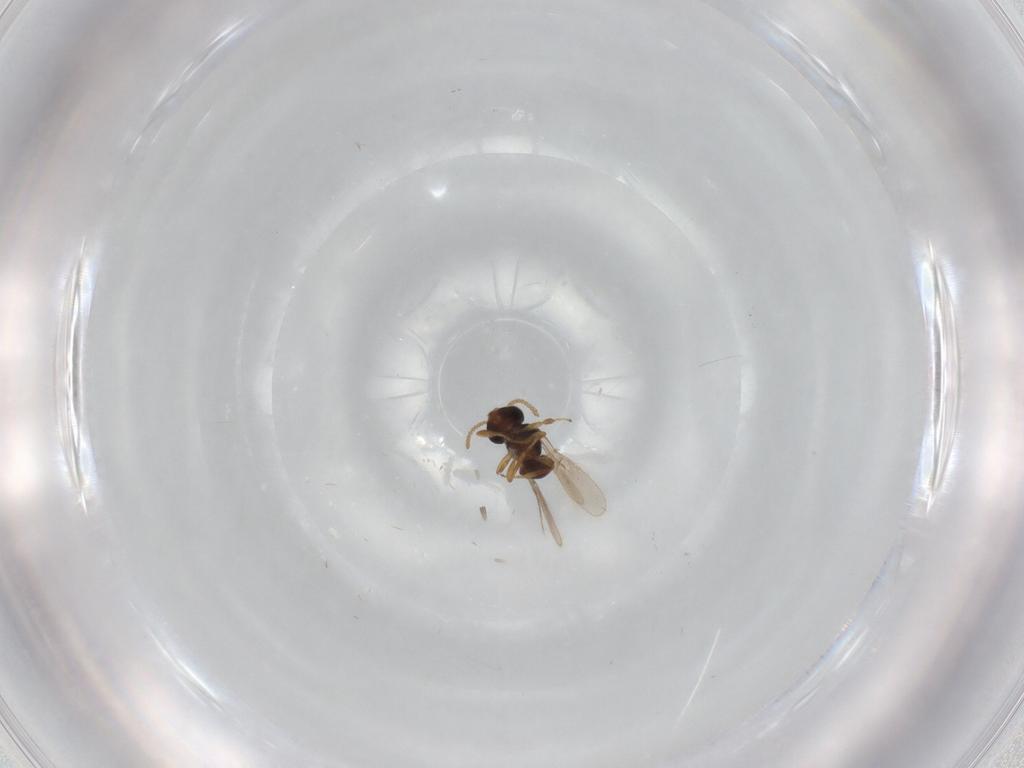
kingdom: Animalia
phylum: Arthropoda
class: Insecta
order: Hymenoptera
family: Scelionidae
